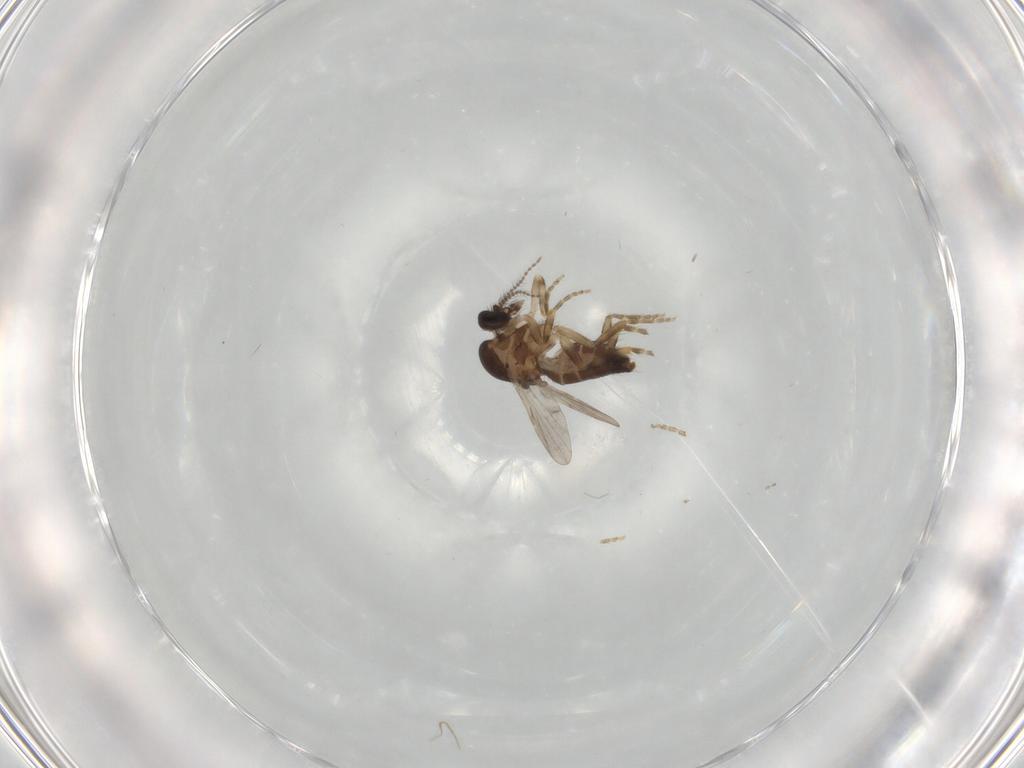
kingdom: Animalia
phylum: Arthropoda
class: Insecta
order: Diptera
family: Ceratopogonidae
